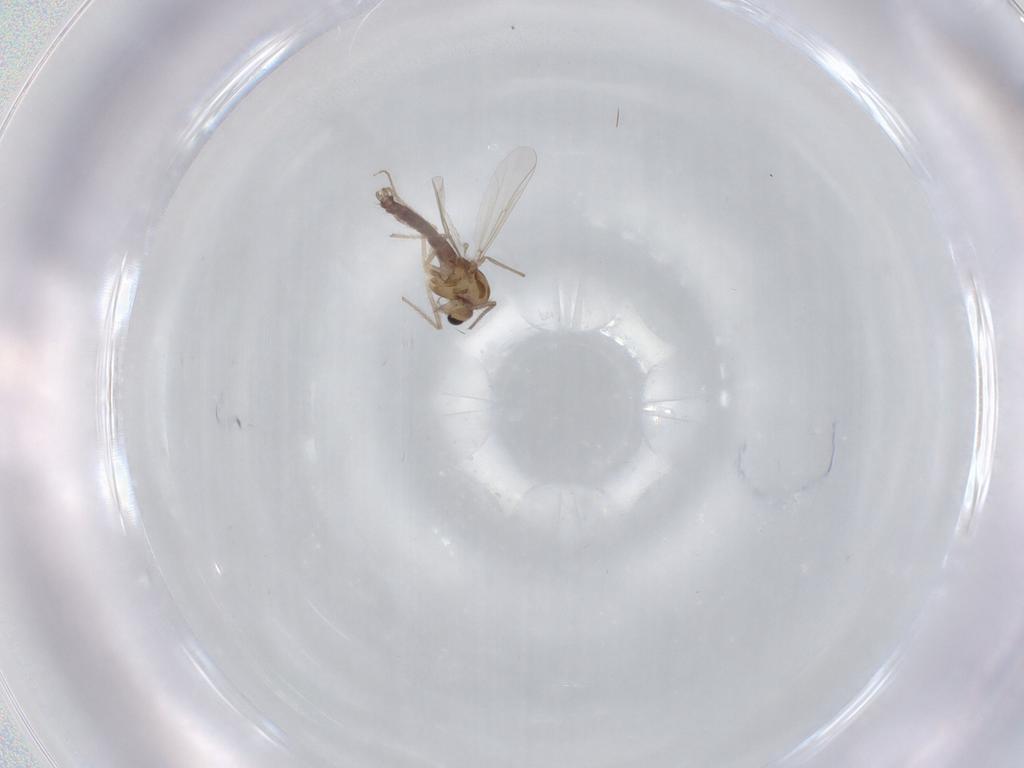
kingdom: Animalia
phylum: Arthropoda
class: Insecta
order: Diptera
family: Chironomidae
